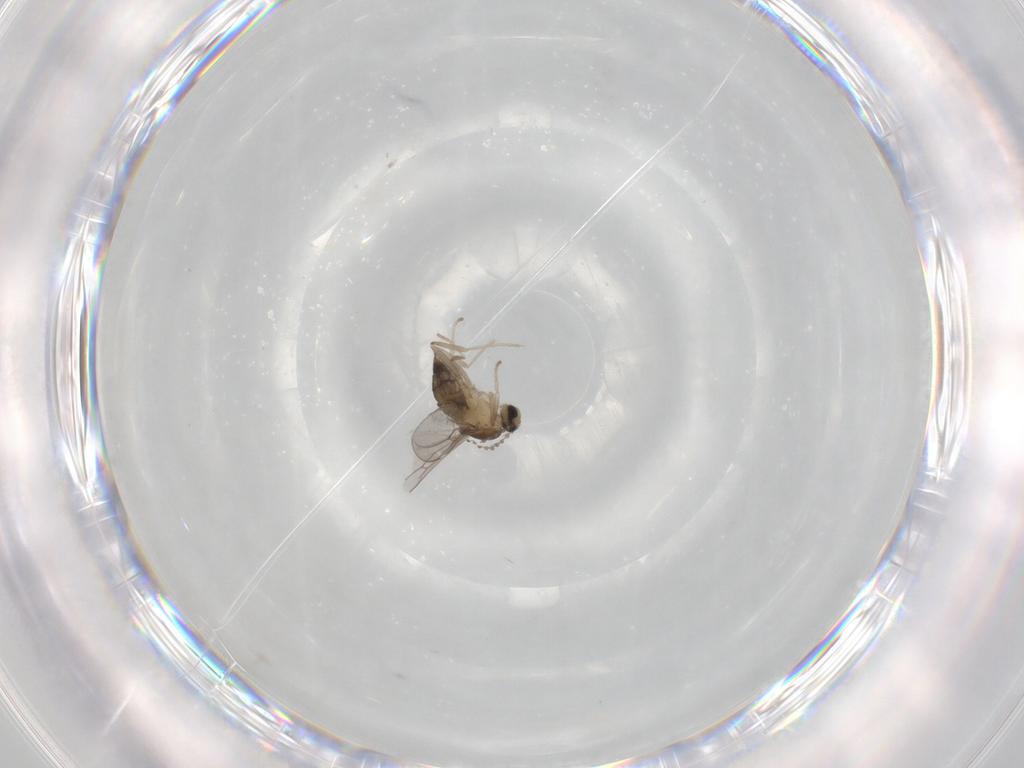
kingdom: Animalia
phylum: Arthropoda
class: Insecta
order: Diptera
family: Cecidomyiidae
